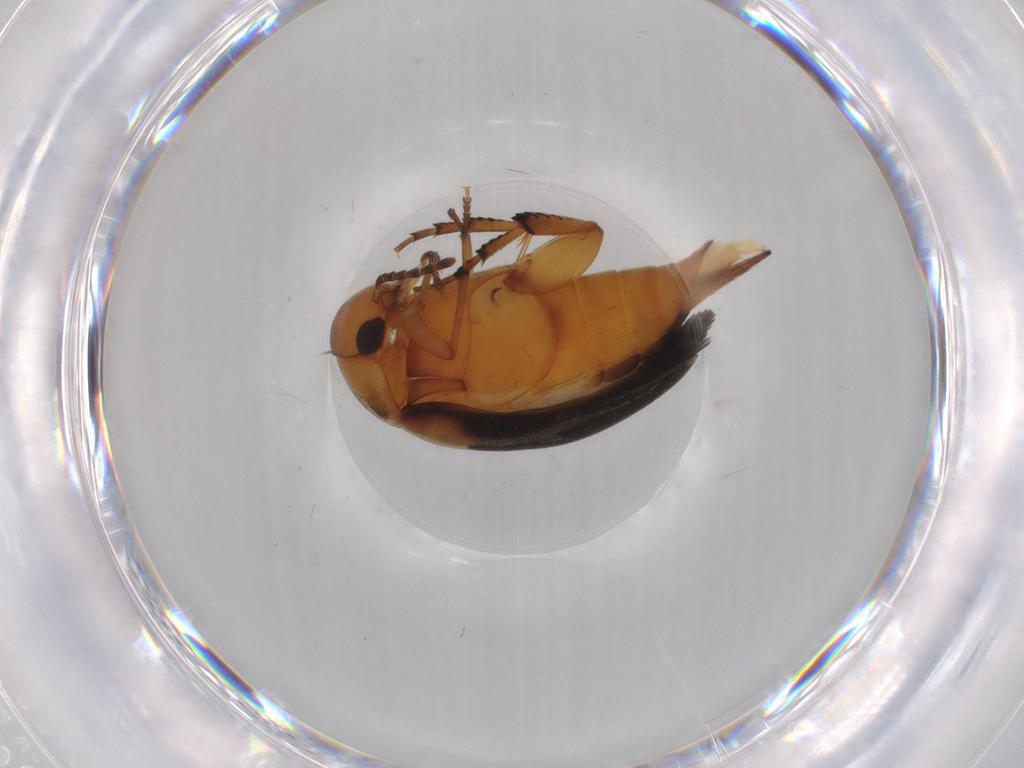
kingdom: Animalia
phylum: Arthropoda
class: Insecta
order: Coleoptera
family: Mordellidae
